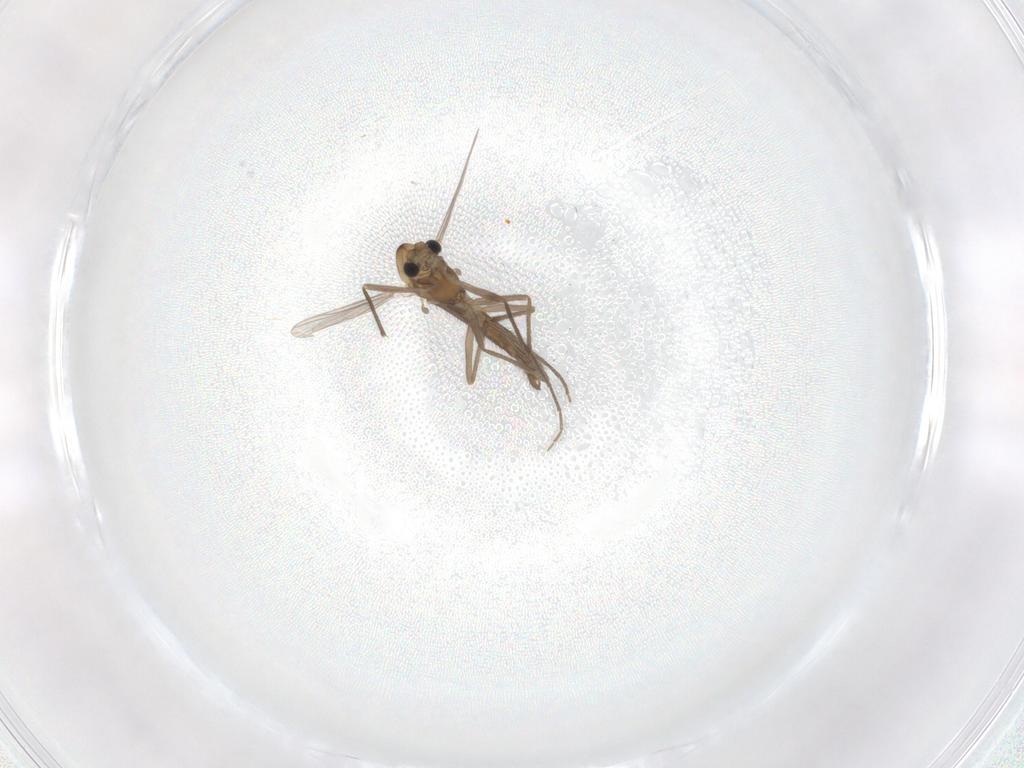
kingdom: Animalia
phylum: Arthropoda
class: Insecta
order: Diptera
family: Chironomidae
